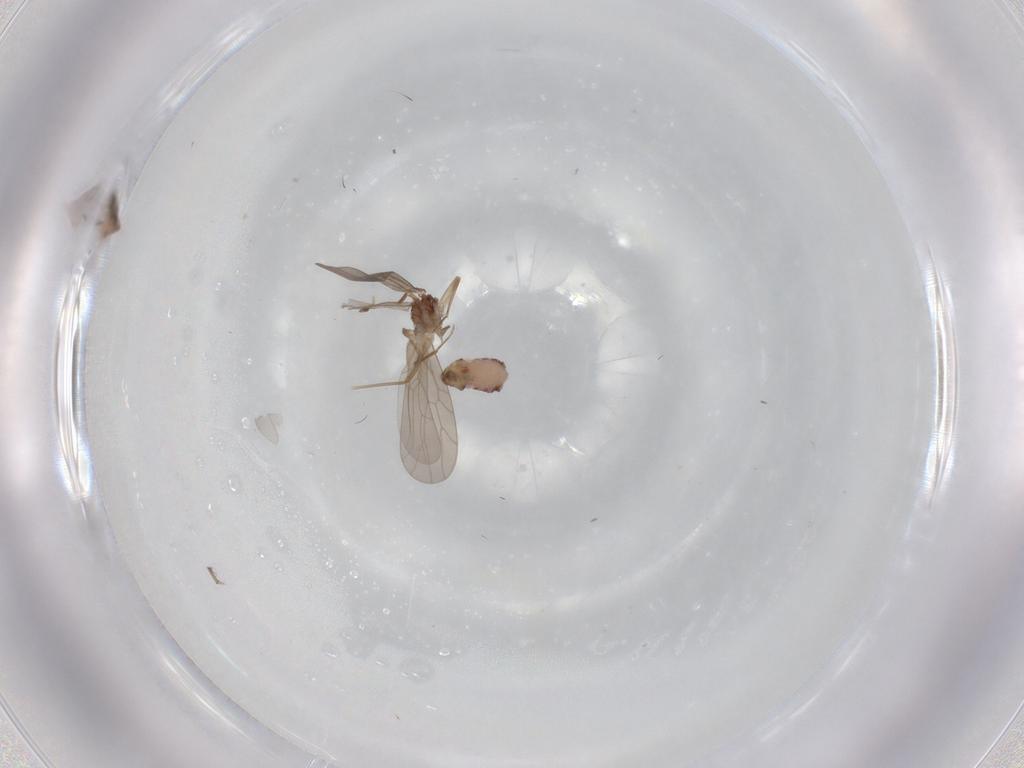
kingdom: Animalia
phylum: Arthropoda
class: Insecta
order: Psocodea
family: Lepidopsocidae
